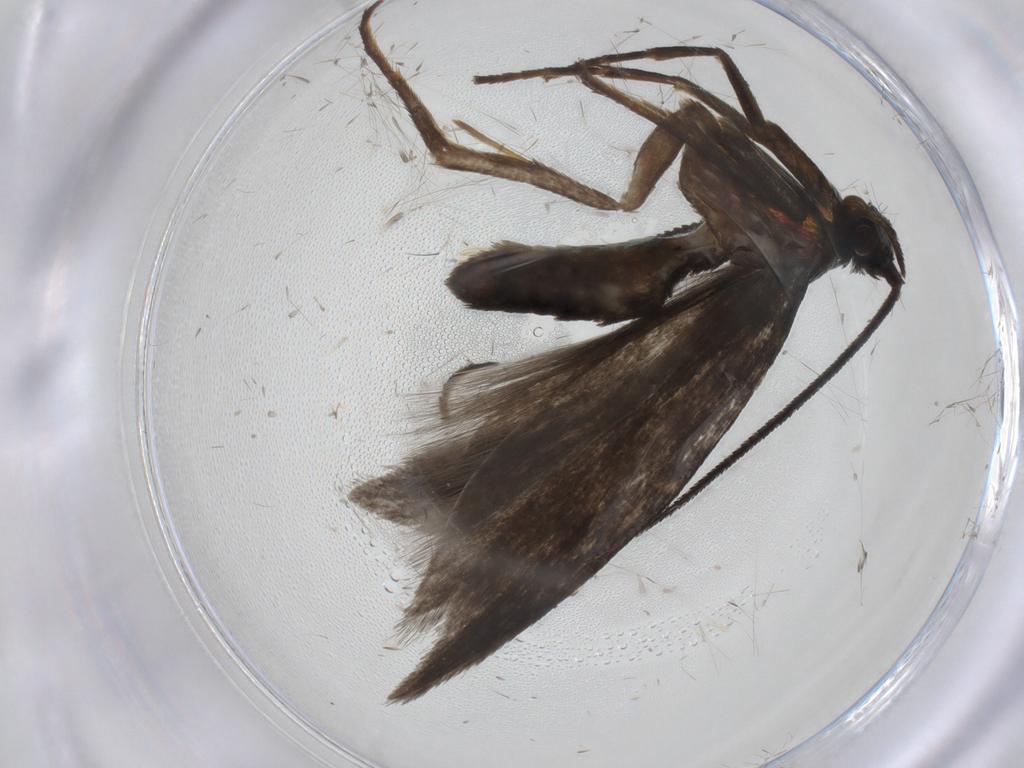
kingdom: Animalia
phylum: Arthropoda
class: Insecta
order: Lepidoptera
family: Argyresthiidae
